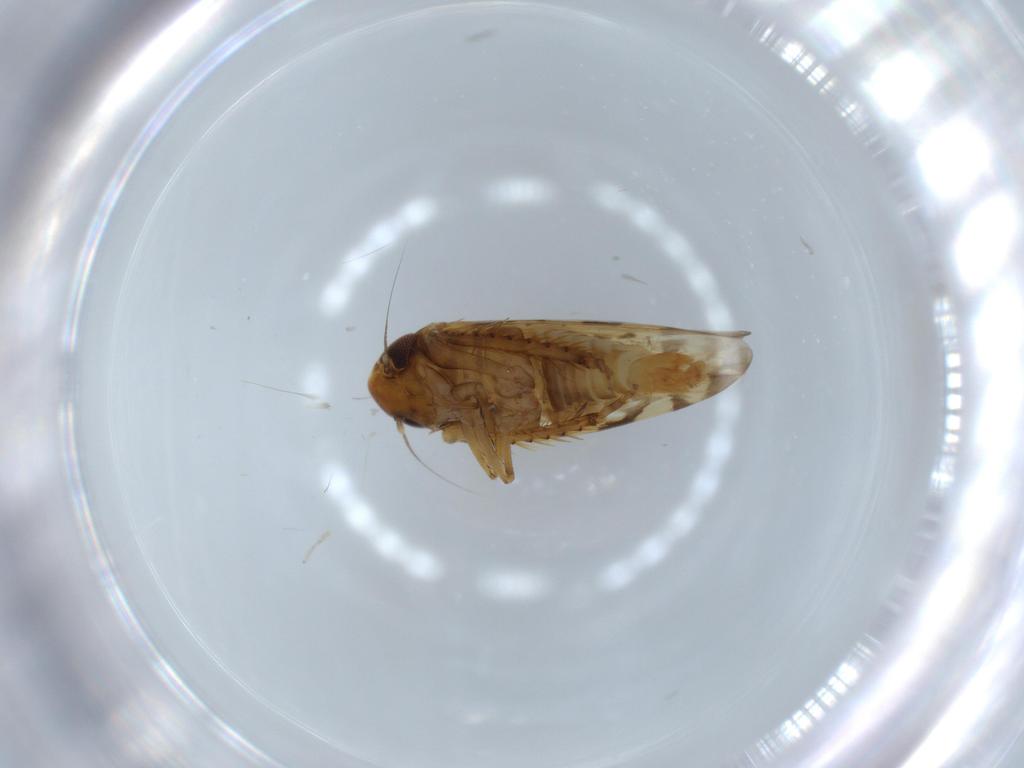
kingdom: Animalia
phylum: Arthropoda
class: Insecta
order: Hemiptera
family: Cicadellidae
